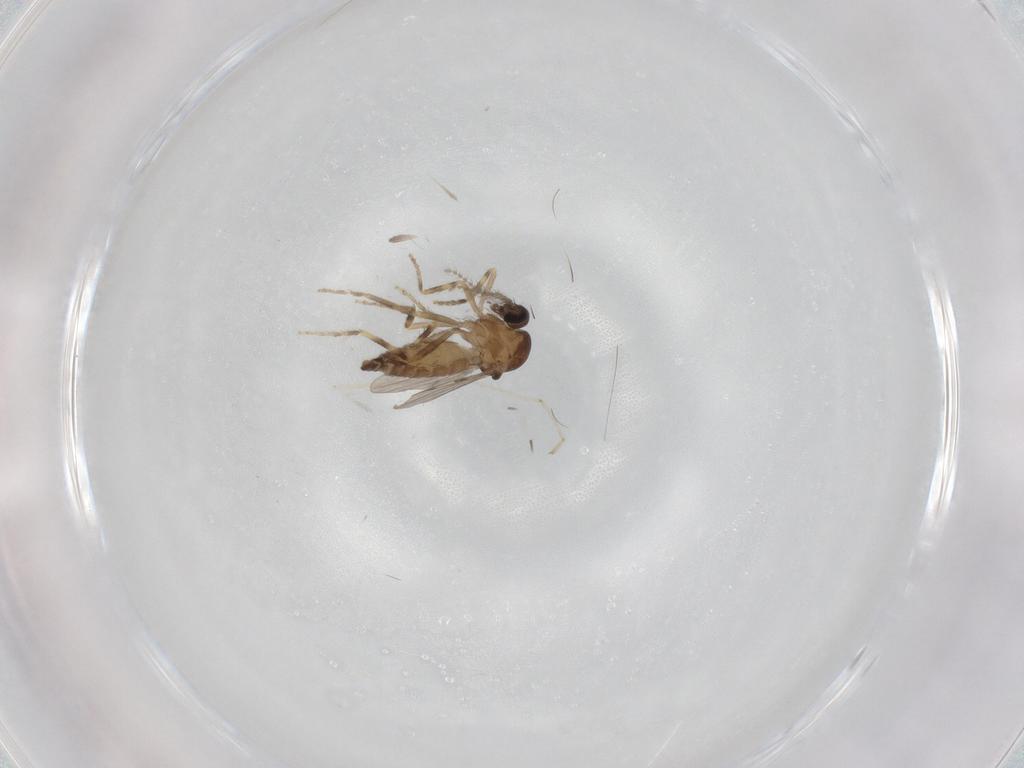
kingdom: Animalia
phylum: Arthropoda
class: Insecta
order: Diptera
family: Ceratopogonidae
